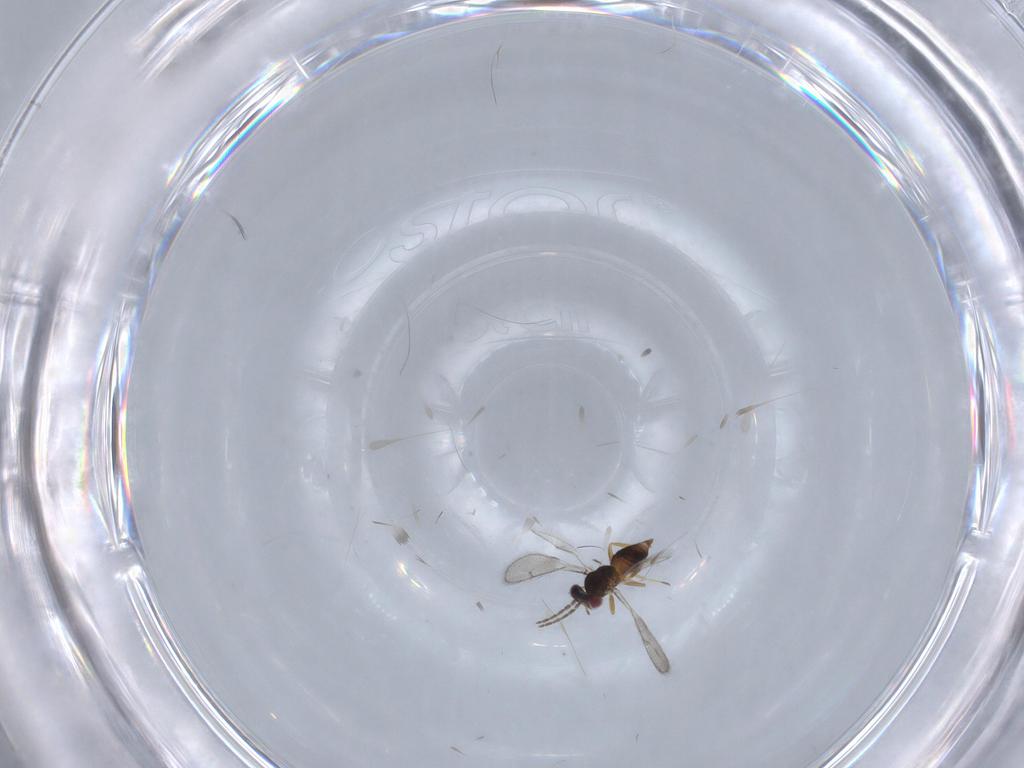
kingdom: Animalia
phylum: Arthropoda
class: Insecta
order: Hymenoptera
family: Eulophidae
